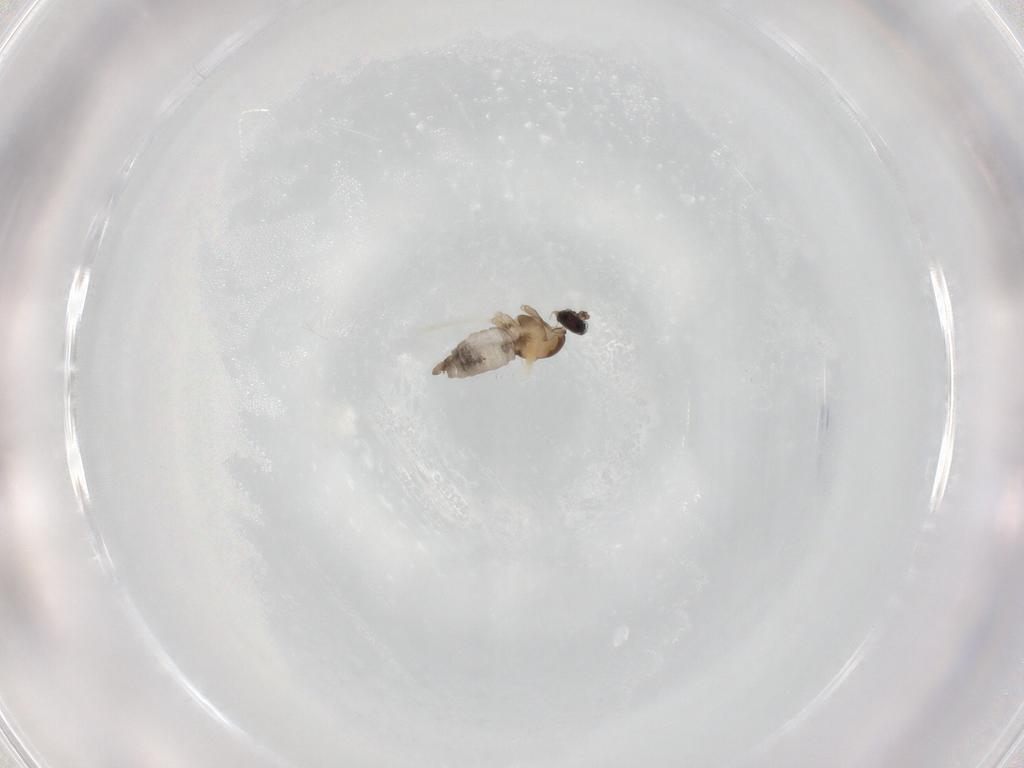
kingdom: Animalia
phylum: Arthropoda
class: Insecta
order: Diptera
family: Cecidomyiidae
